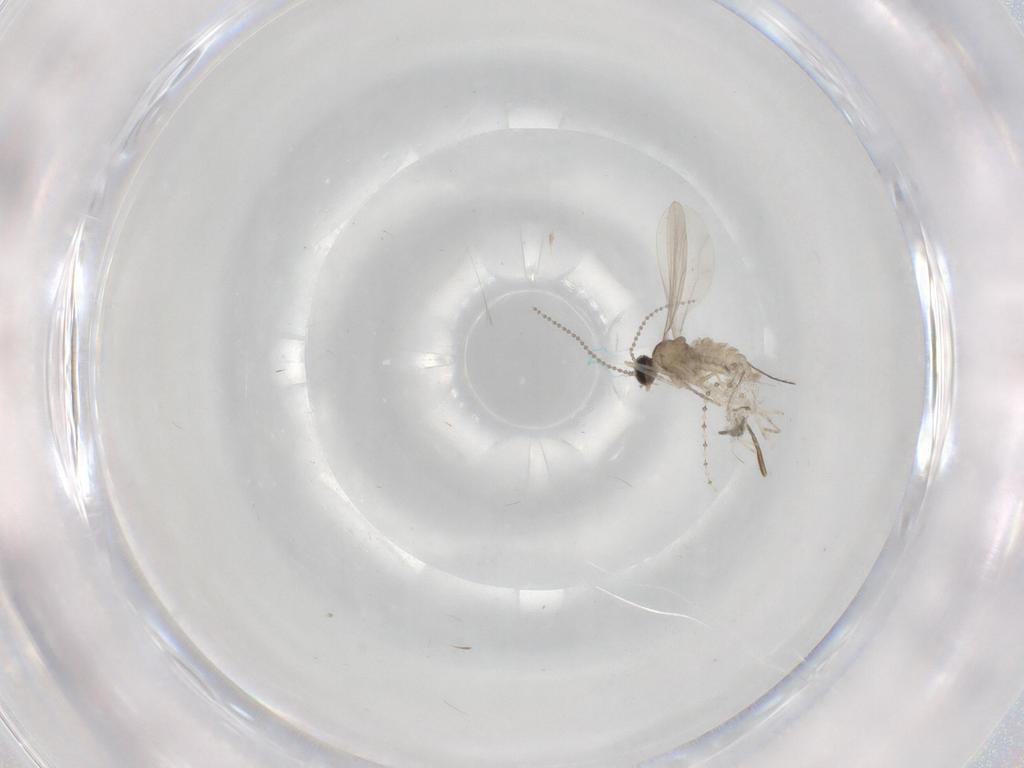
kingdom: Animalia
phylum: Arthropoda
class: Insecta
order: Diptera
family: Cecidomyiidae
